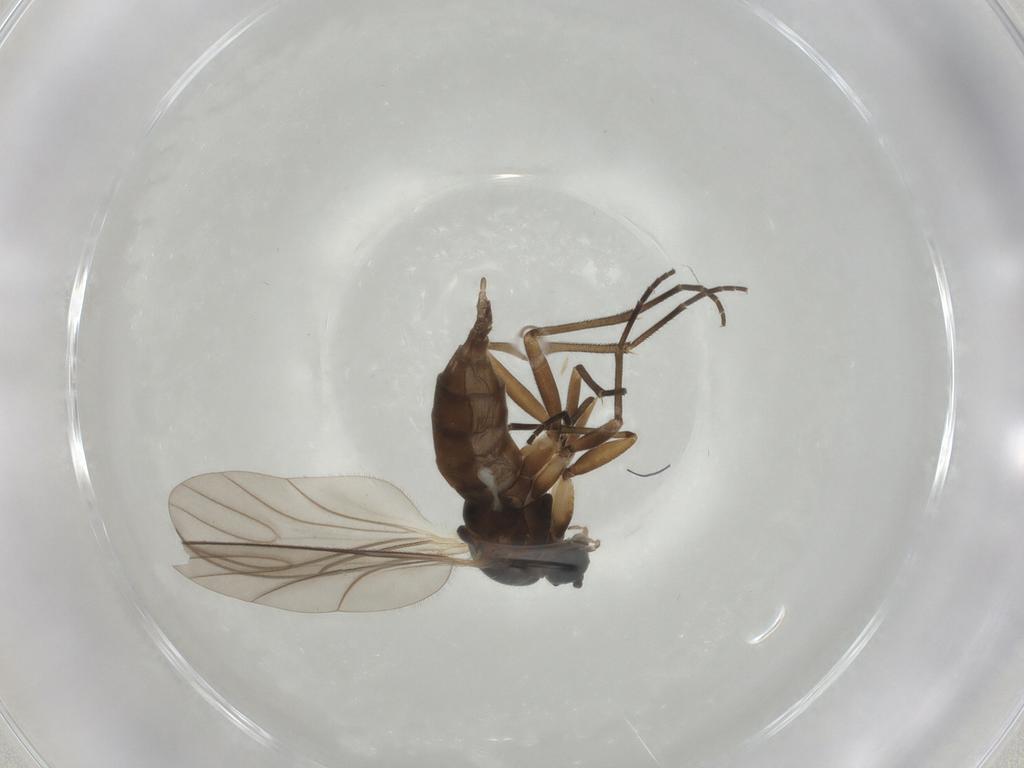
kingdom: Animalia
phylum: Arthropoda
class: Insecta
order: Diptera
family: Sciaridae
